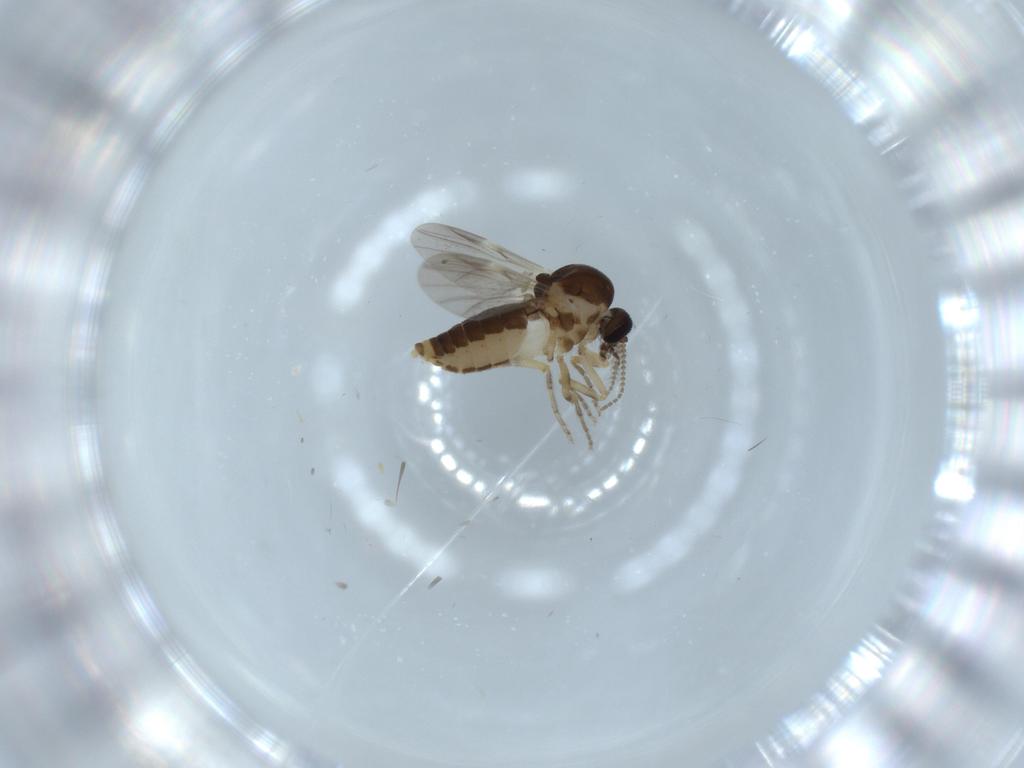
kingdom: Animalia
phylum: Arthropoda
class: Insecta
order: Diptera
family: Ceratopogonidae
